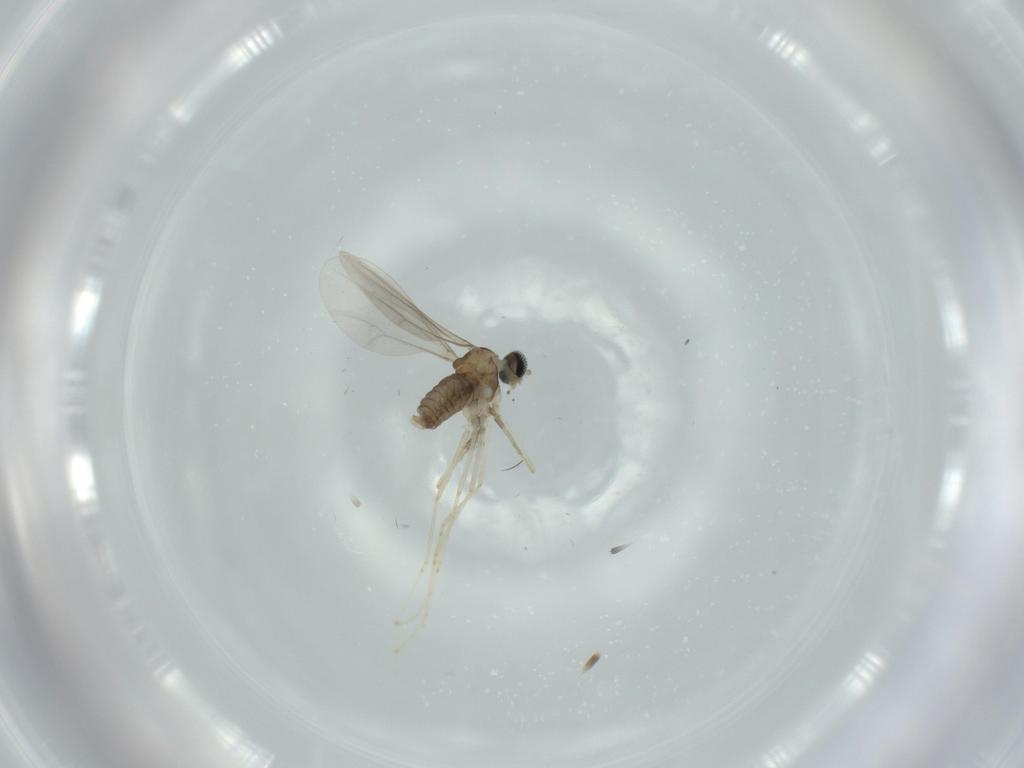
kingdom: Animalia
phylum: Arthropoda
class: Insecta
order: Diptera
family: Cecidomyiidae
